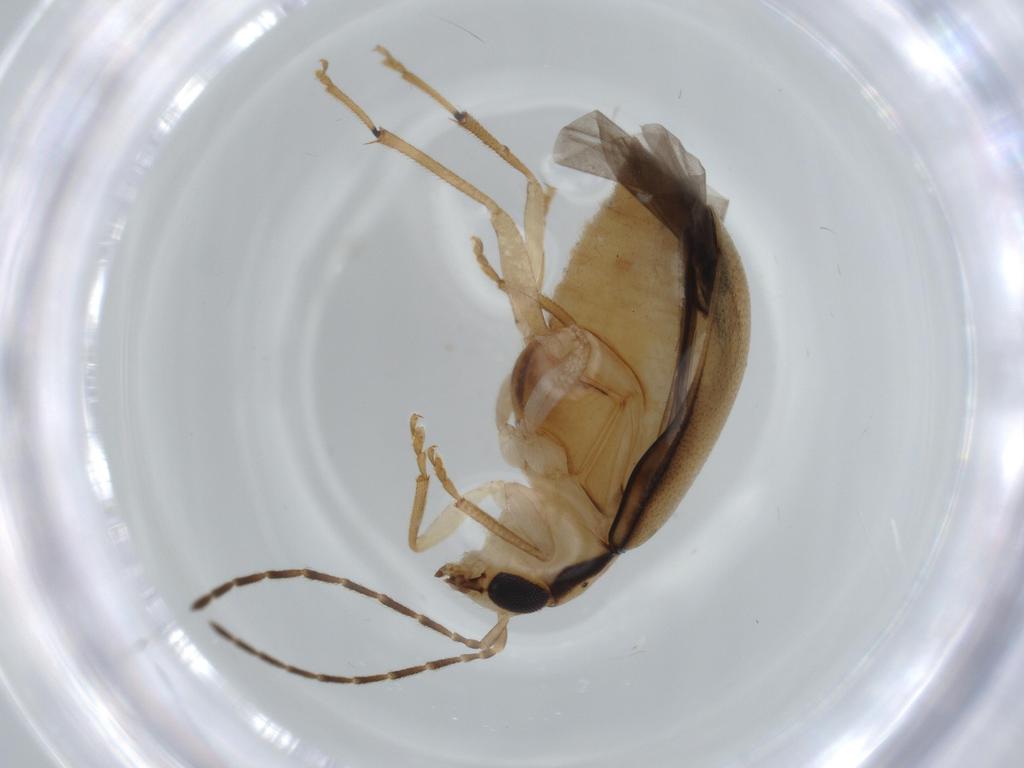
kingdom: Animalia
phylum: Arthropoda
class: Insecta
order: Coleoptera
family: Chrysomelidae
